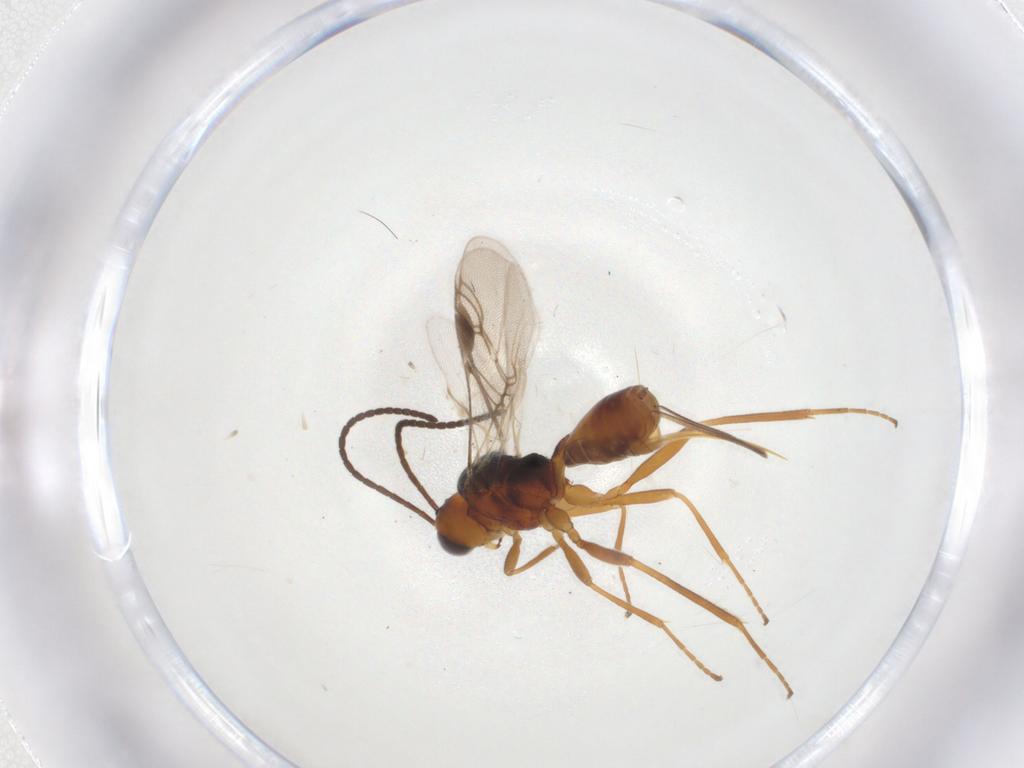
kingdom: Animalia
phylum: Arthropoda
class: Insecta
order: Hymenoptera
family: Braconidae
